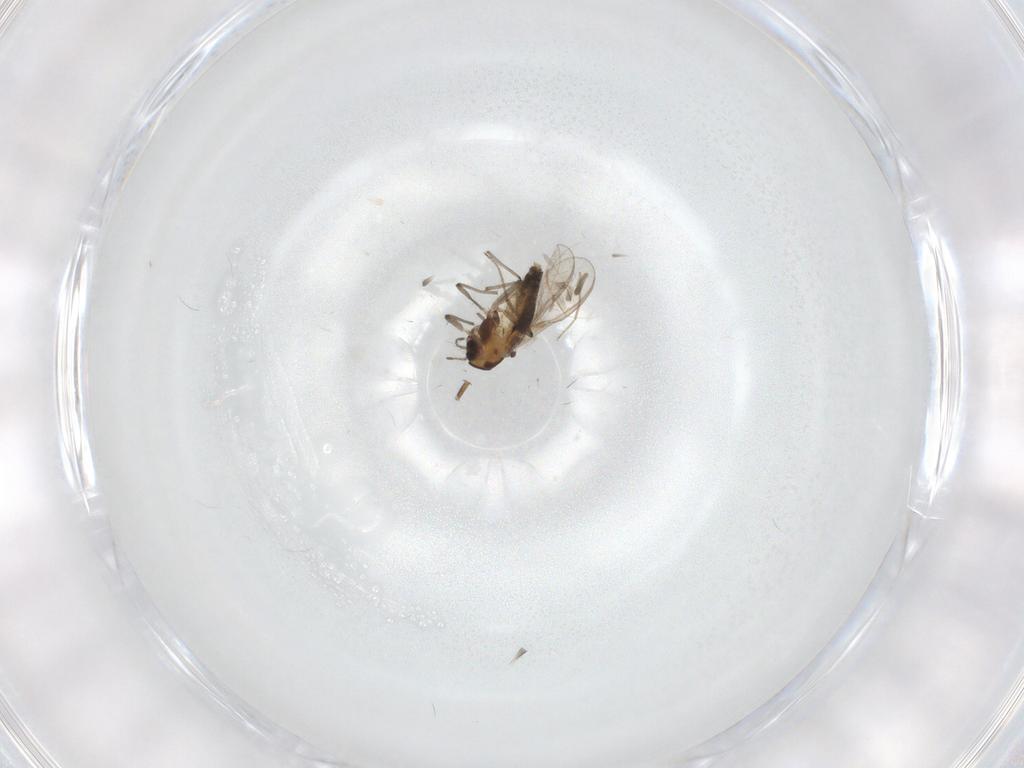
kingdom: Animalia
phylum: Arthropoda
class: Insecta
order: Diptera
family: Chironomidae
